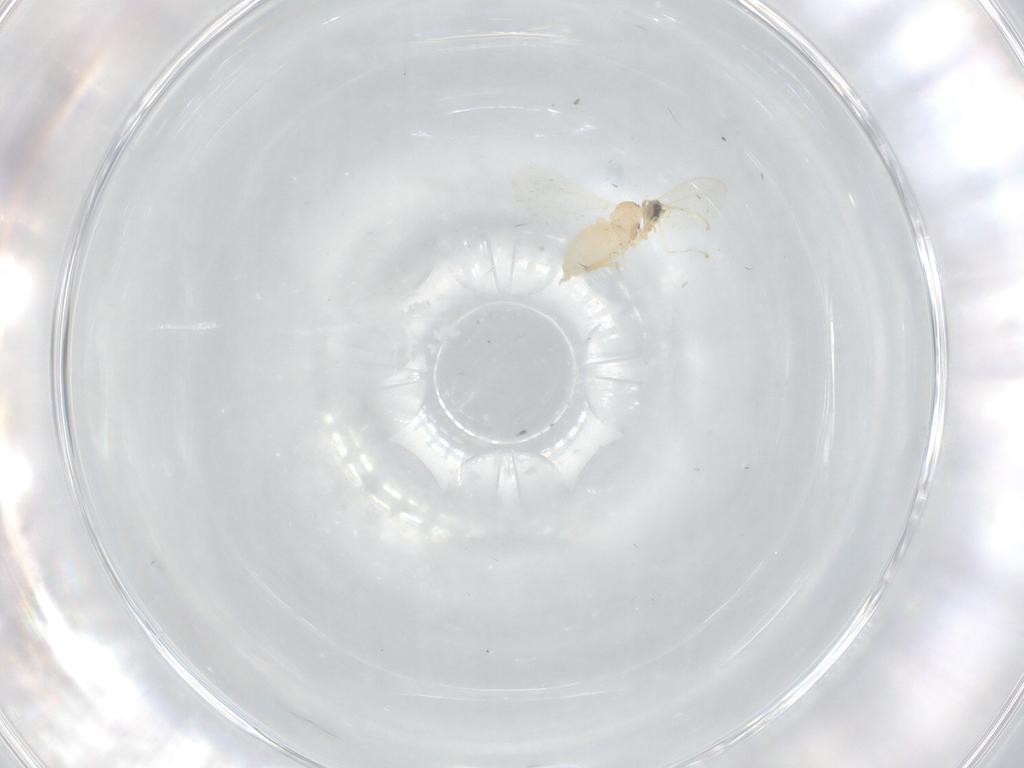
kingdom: Animalia
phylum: Arthropoda
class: Insecta
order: Diptera
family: Cecidomyiidae
